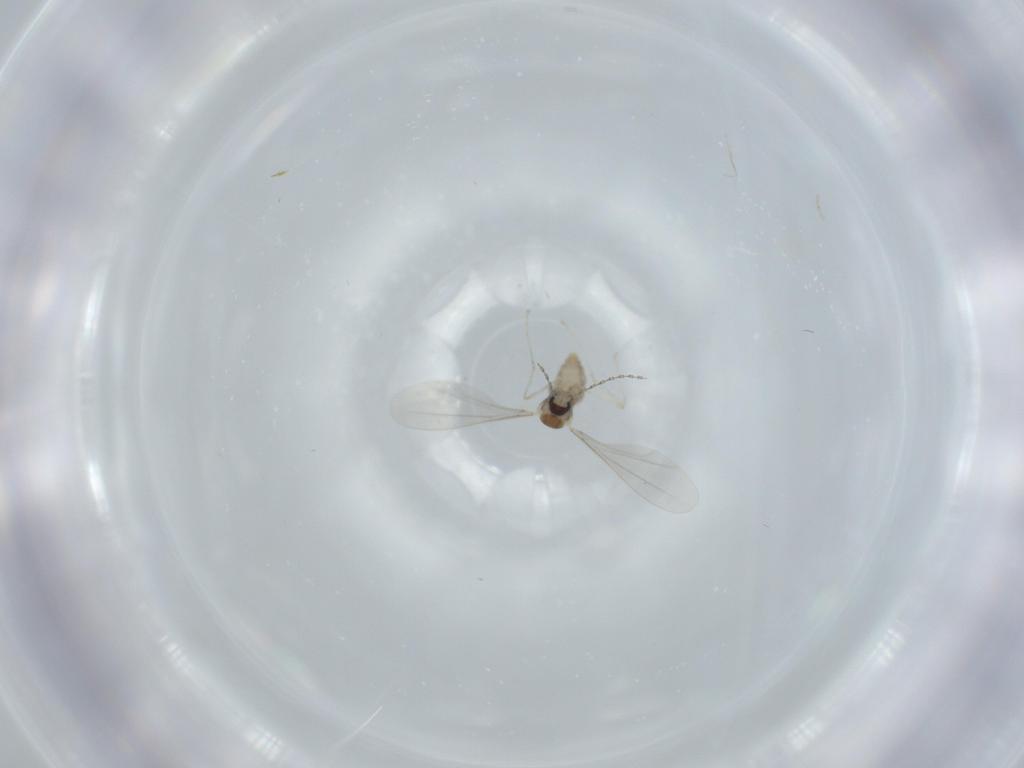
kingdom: Animalia
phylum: Arthropoda
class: Insecta
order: Diptera
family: Cecidomyiidae
